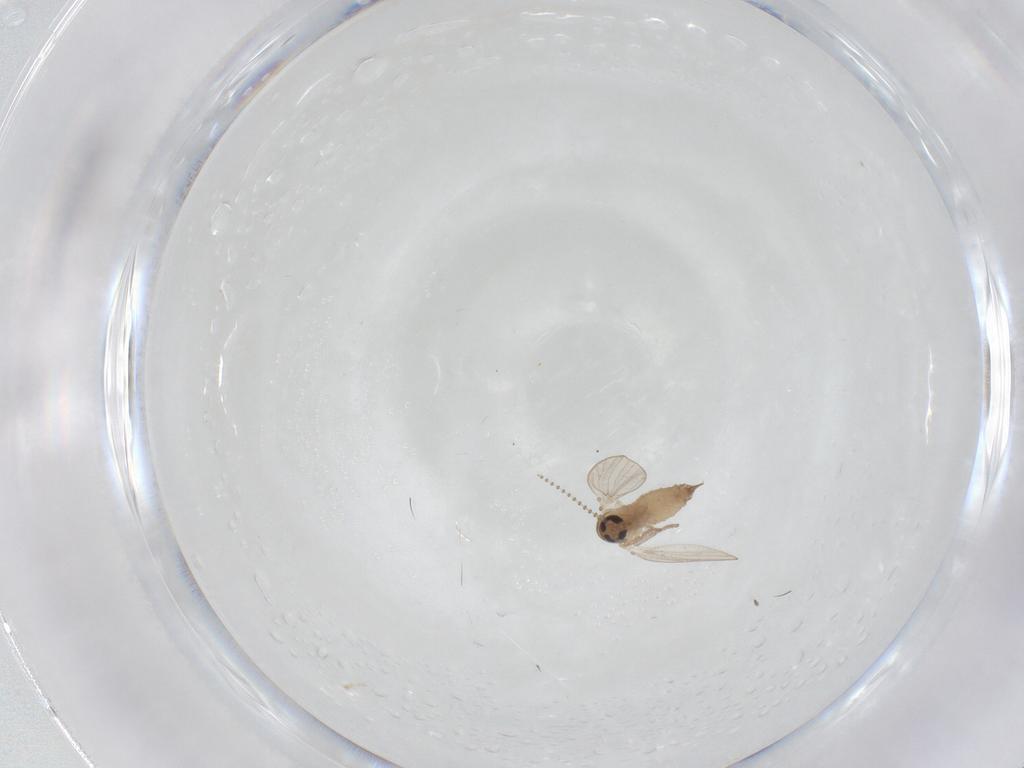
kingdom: Animalia
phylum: Arthropoda
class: Insecta
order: Diptera
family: Psychodidae
